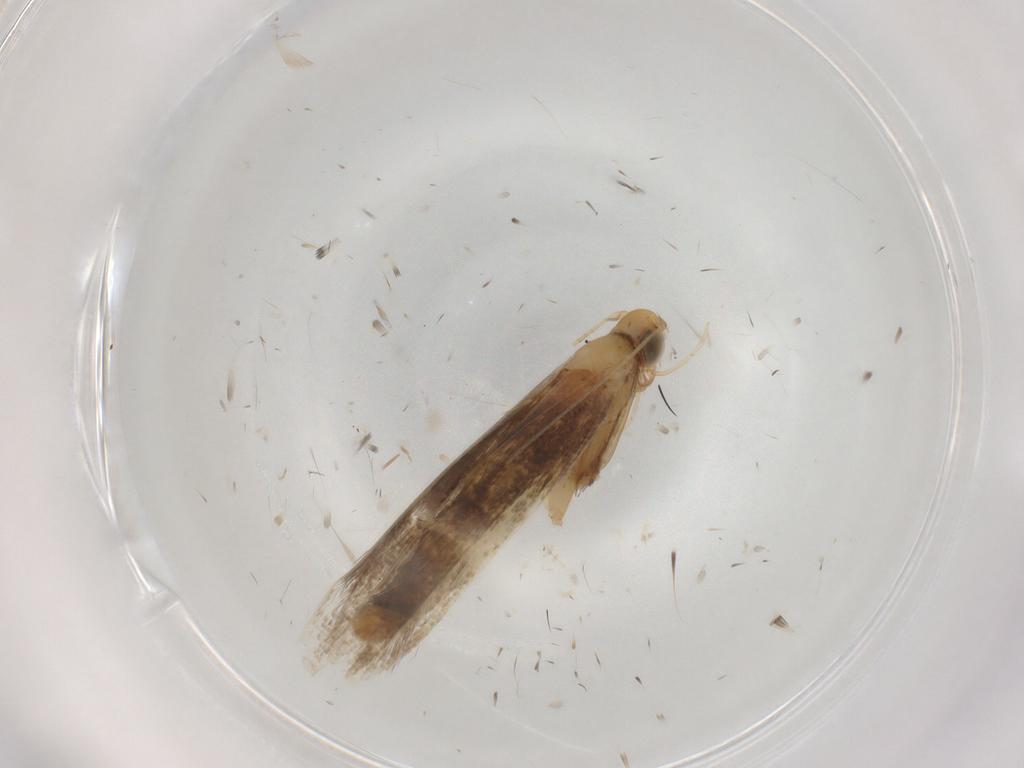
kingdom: Animalia
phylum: Arthropoda
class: Insecta
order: Lepidoptera
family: Gracillariidae
